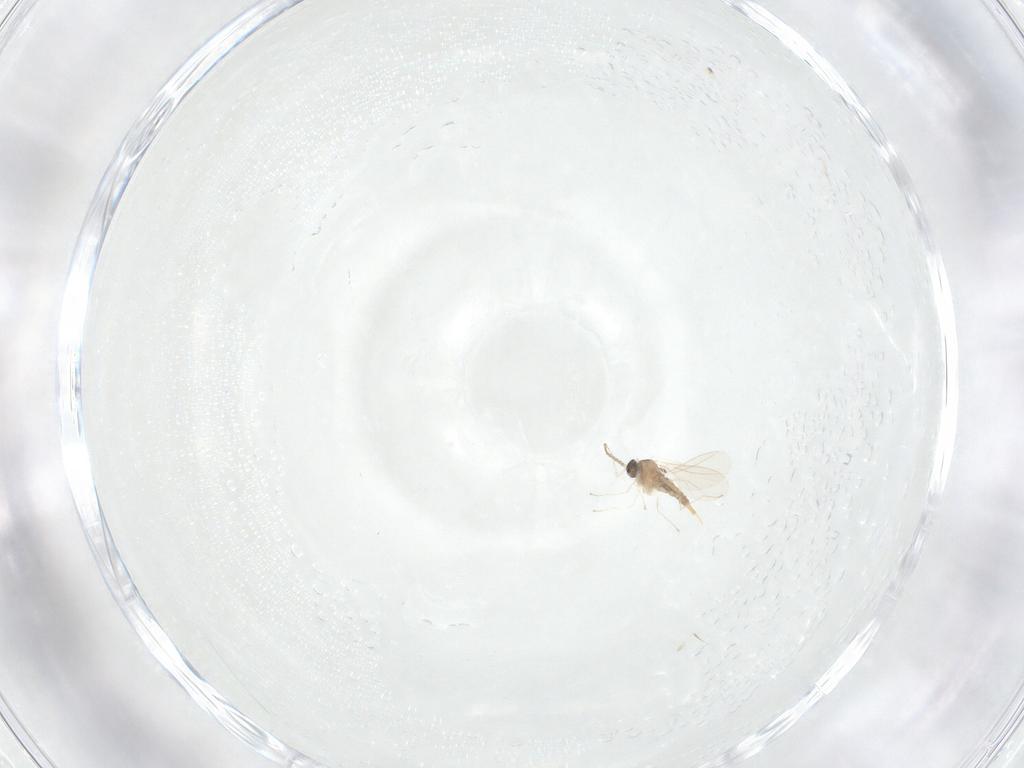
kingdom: Animalia
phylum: Arthropoda
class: Insecta
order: Diptera
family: Cecidomyiidae
